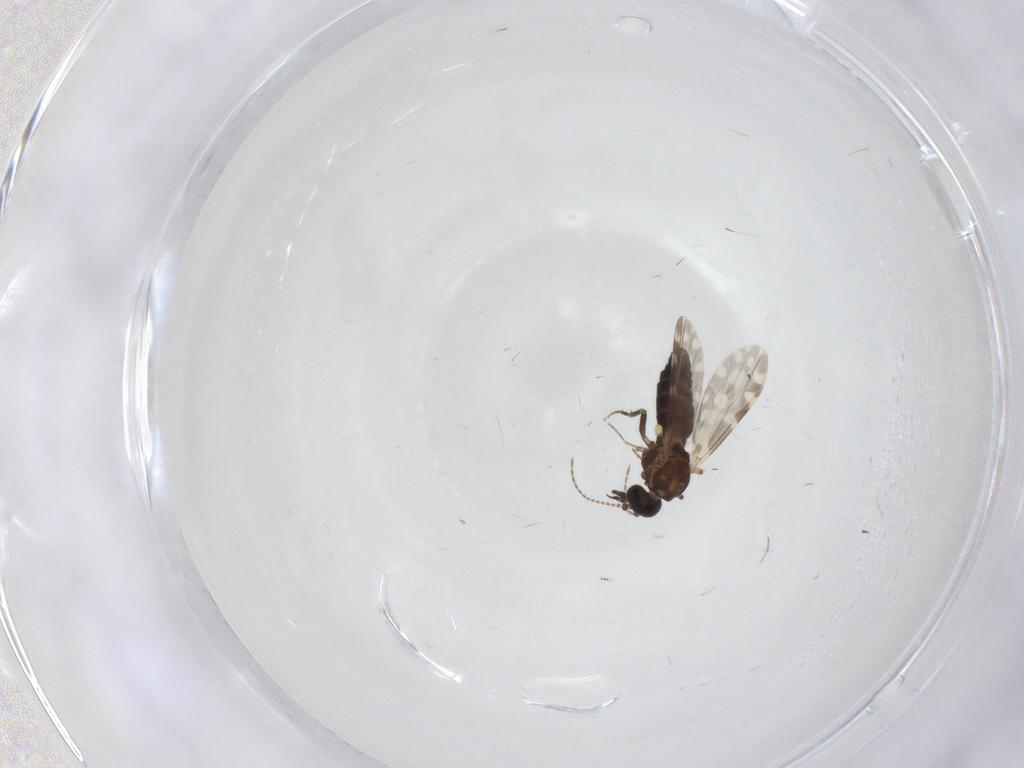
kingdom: Animalia
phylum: Arthropoda
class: Insecta
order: Diptera
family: Ceratopogonidae
